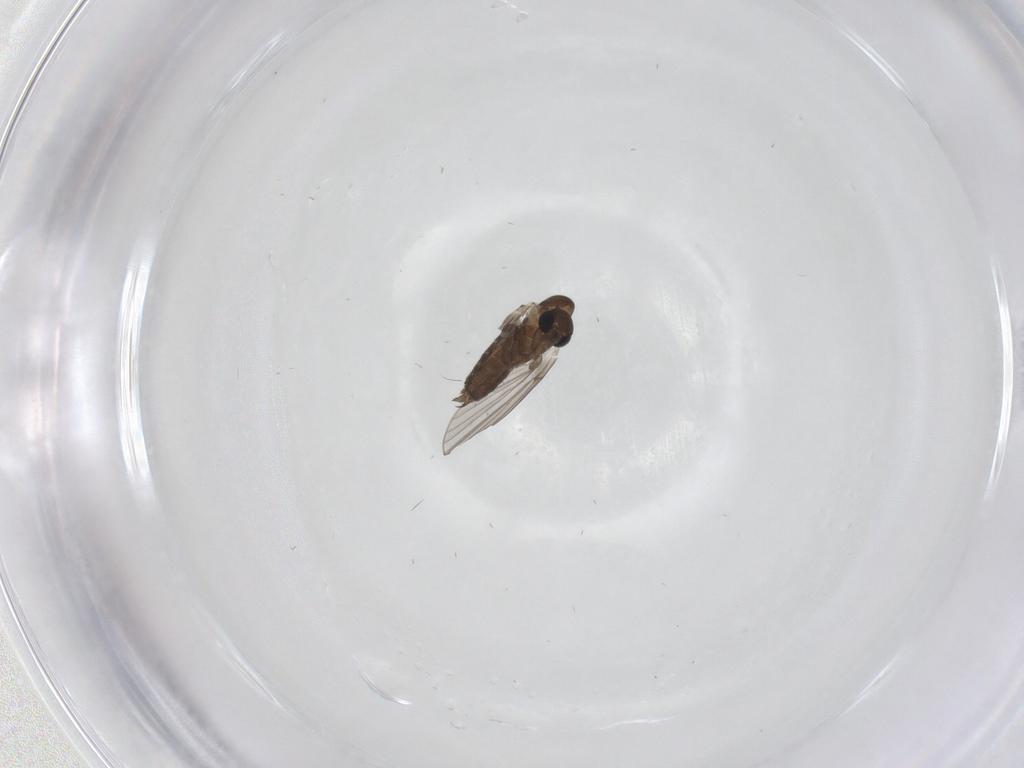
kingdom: Animalia
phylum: Arthropoda
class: Insecta
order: Diptera
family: Stratiomyidae
